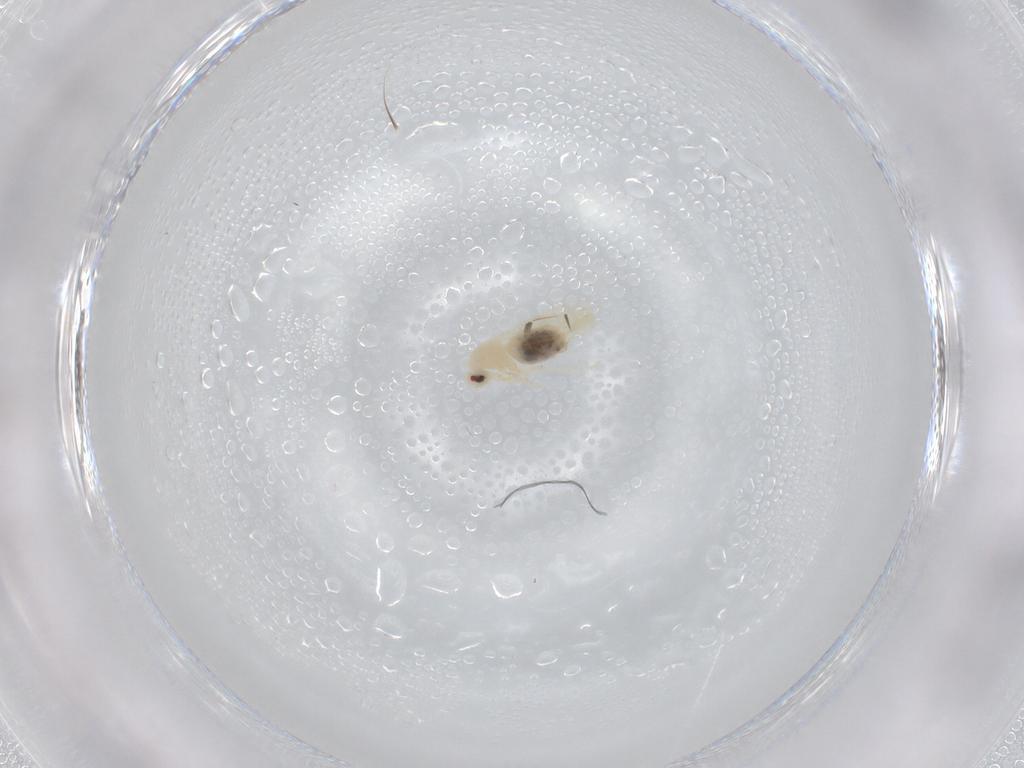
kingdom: Animalia
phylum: Arthropoda
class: Insecta
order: Hemiptera
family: Aleyrodidae
